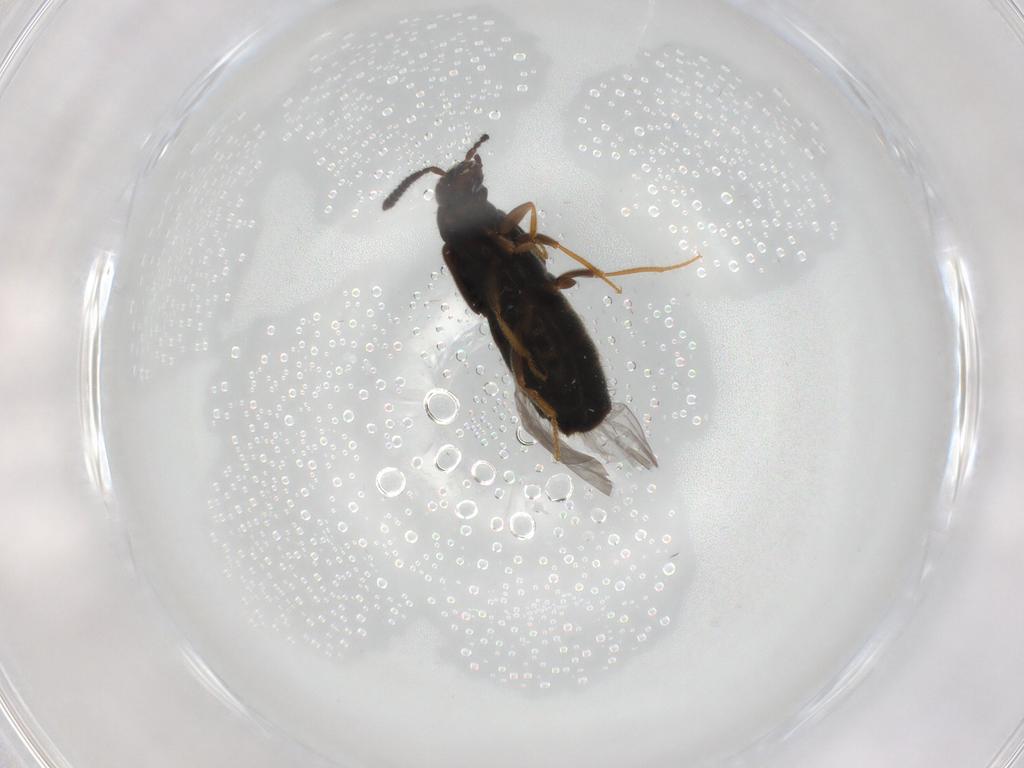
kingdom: Animalia
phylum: Arthropoda
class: Insecta
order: Coleoptera
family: Staphylinidae
